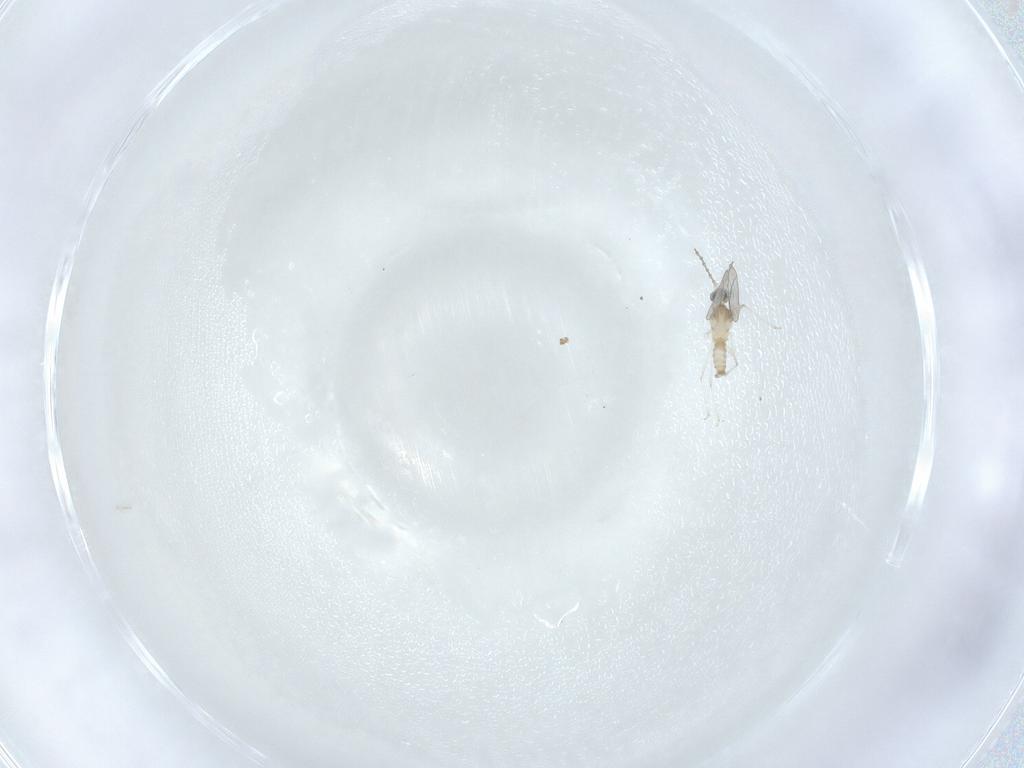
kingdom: Animalia
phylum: Arthropoda
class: Insecta
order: Diptera
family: Cecidomyiidae
